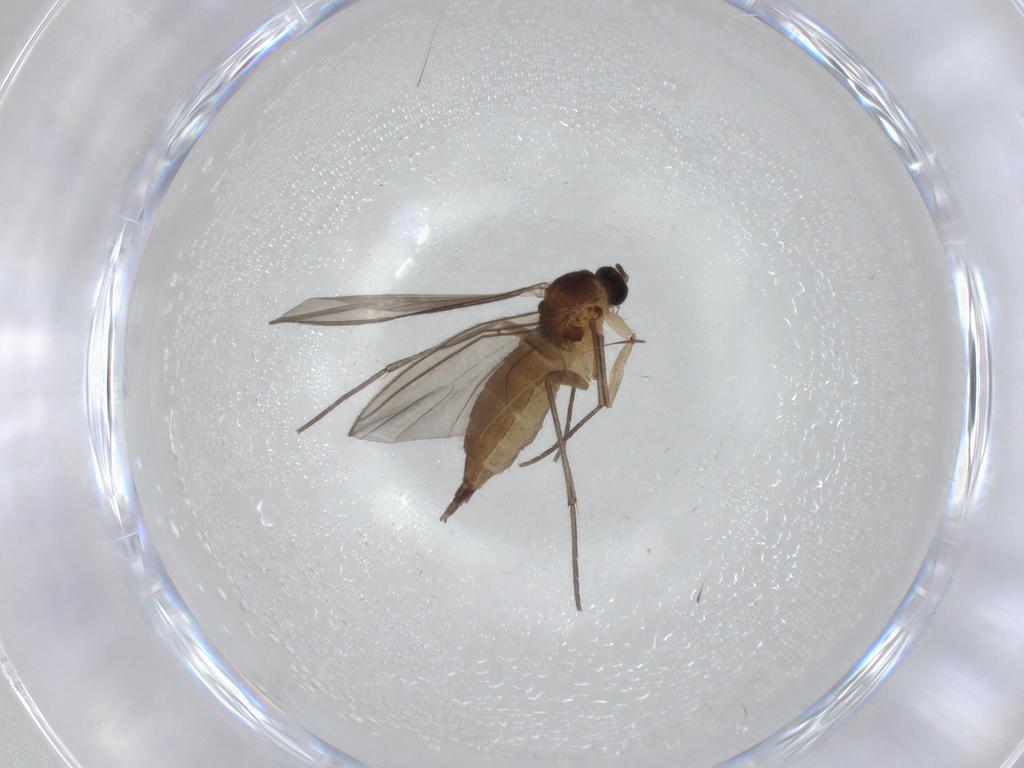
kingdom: Animalia
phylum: Arthropoda
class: Insecta
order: Diptera
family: Sciaridae
